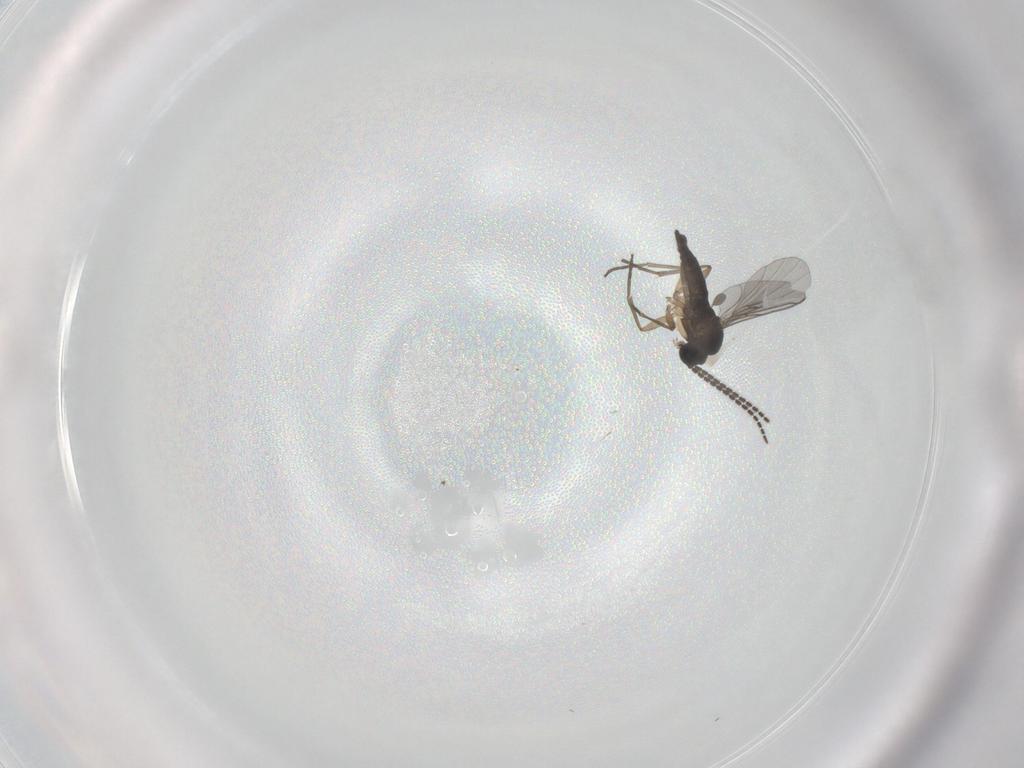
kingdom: Animalia
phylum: Arthropoda
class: Insecta
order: Diptera
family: Sciaridae
